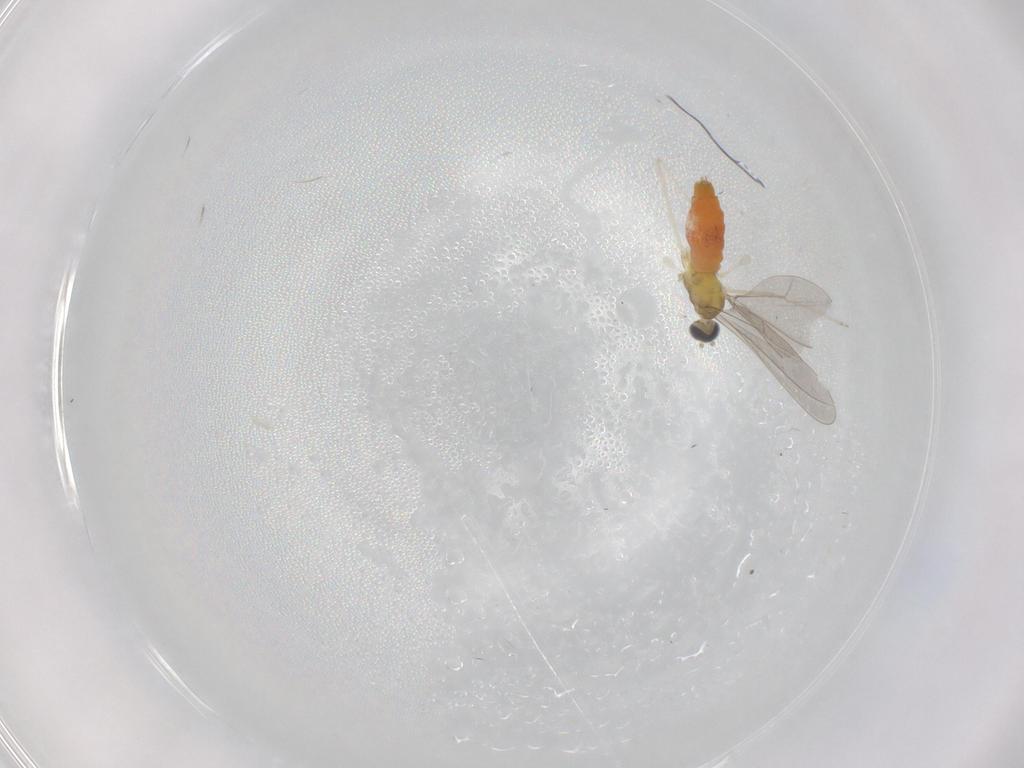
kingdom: Animalia
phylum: Arthropoda
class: Insecta
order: Diptera
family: Cecidomyiidae
